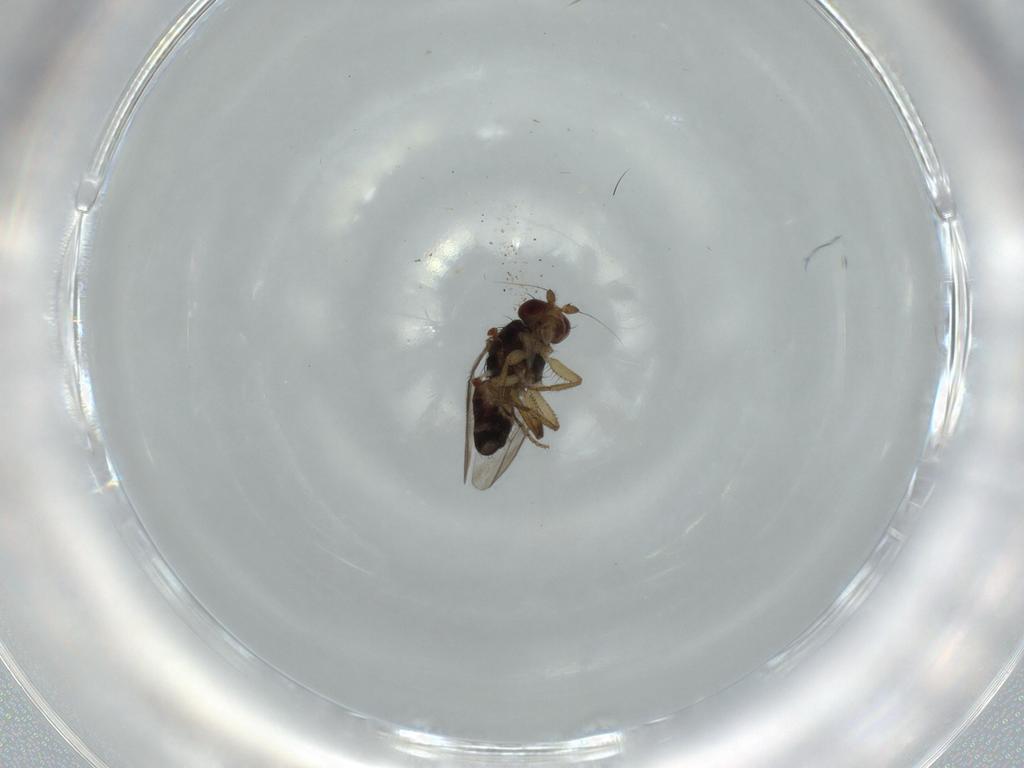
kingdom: Animalia
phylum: Arthropoda
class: Insecta
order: Diptera
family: Sphaeroceridae
